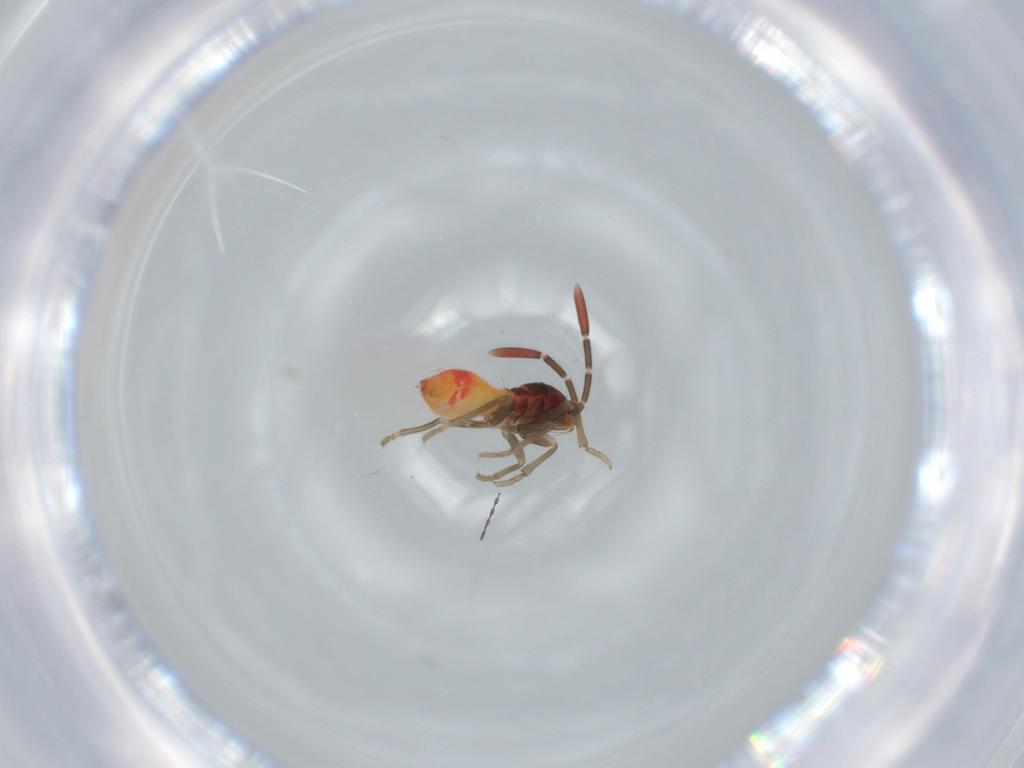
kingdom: Animalia
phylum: Arthropoda
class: Insecta
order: Hemiptera
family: Rhyparochromidae
